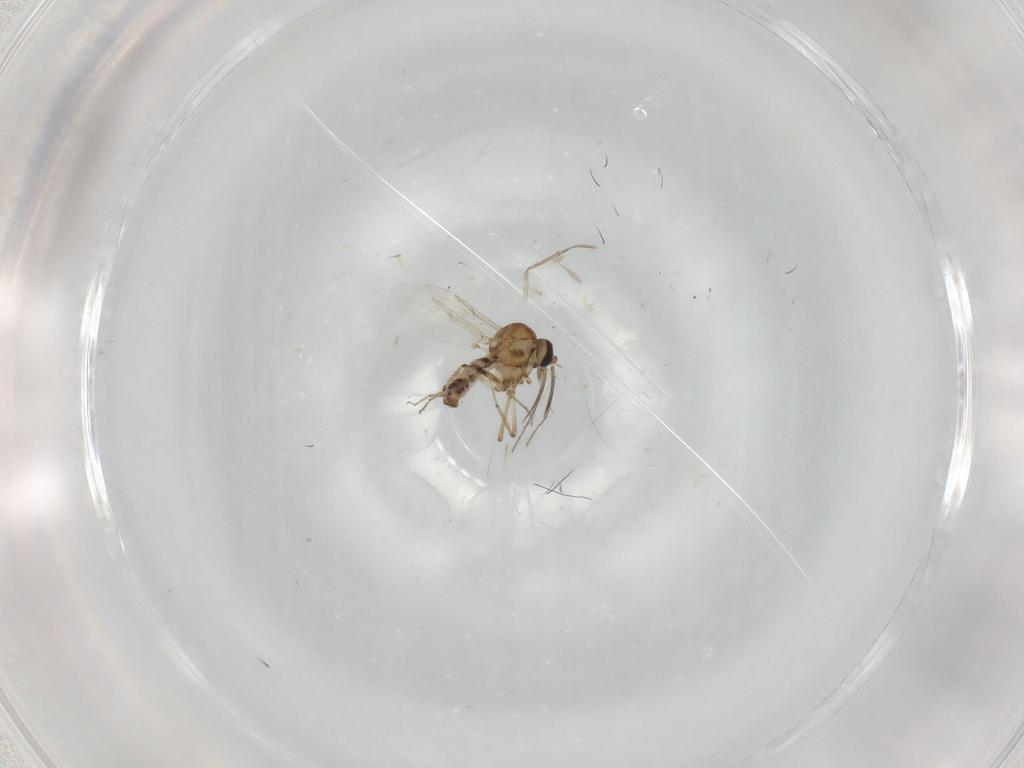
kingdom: Animalia
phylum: Arthropoda
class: Insecta
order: Diptera
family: Ceratopogonidae
